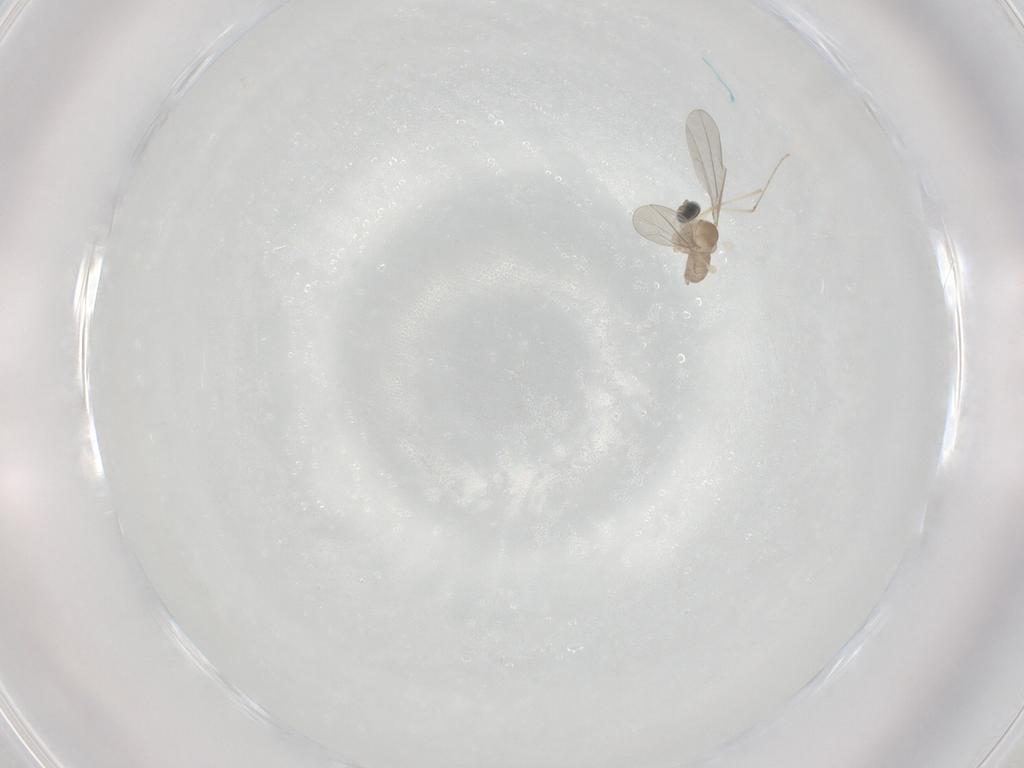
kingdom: Animalia
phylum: Arthropoda
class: Insecta
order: Diptera
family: Cecidomyiidae
